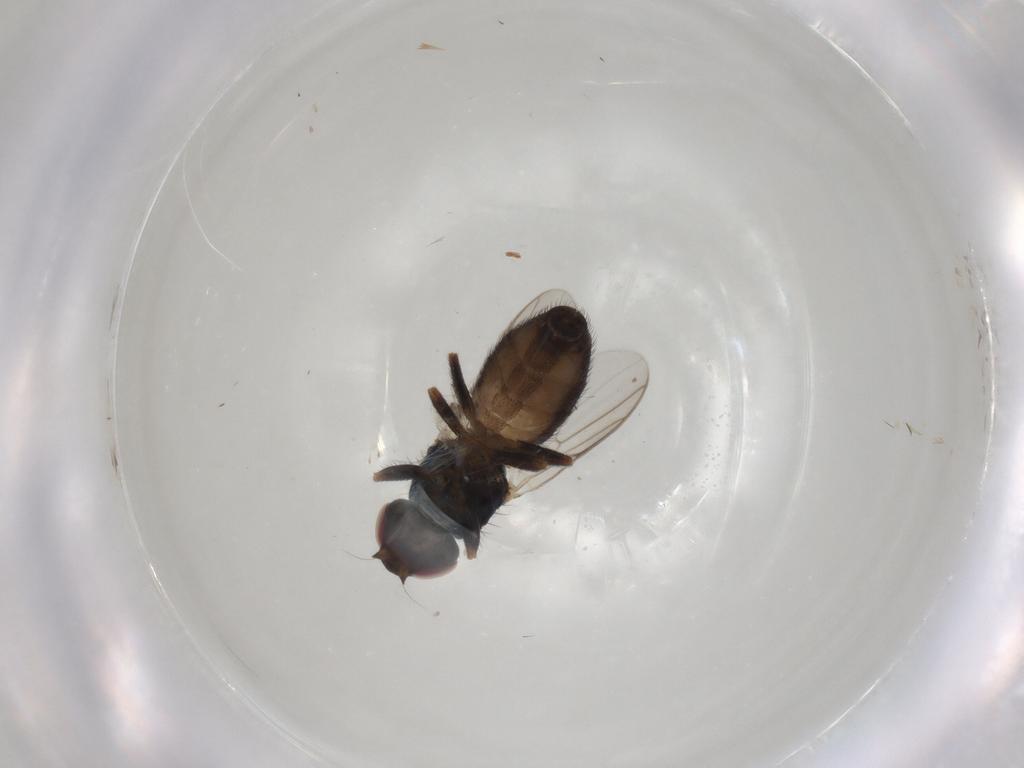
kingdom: Animalia
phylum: Arthropoda
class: Insecta
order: Diptera
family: Chloropidae
